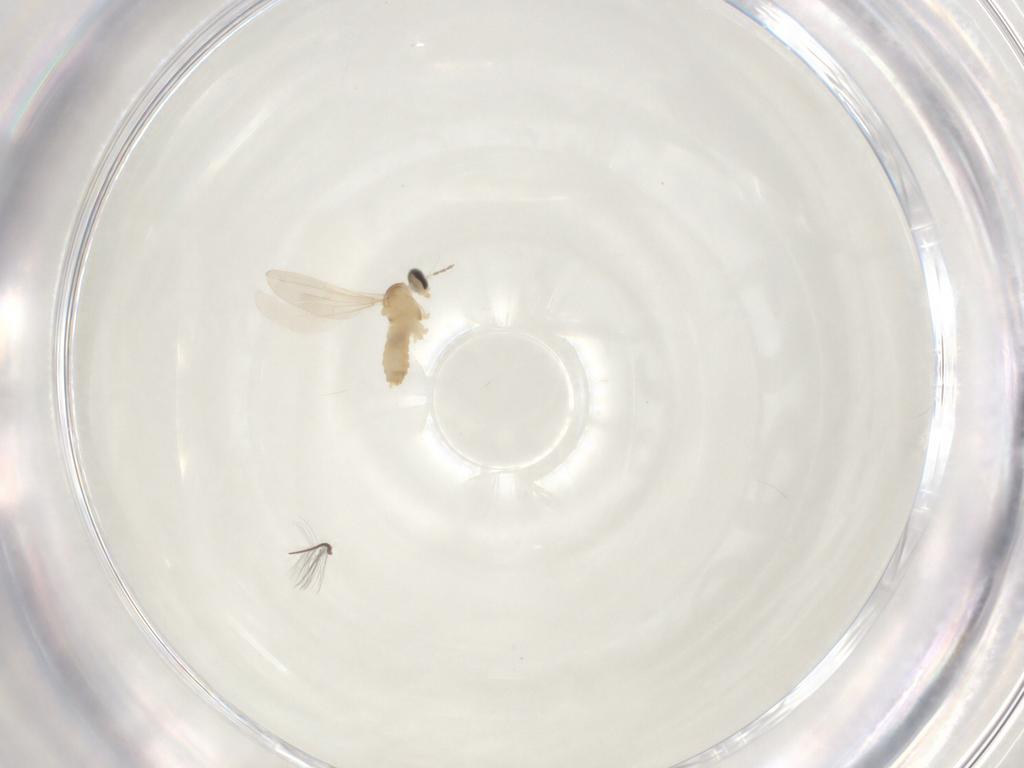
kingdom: Animalia
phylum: Arthropoda
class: Insecta
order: Diptera
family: Cecidomyiidae
